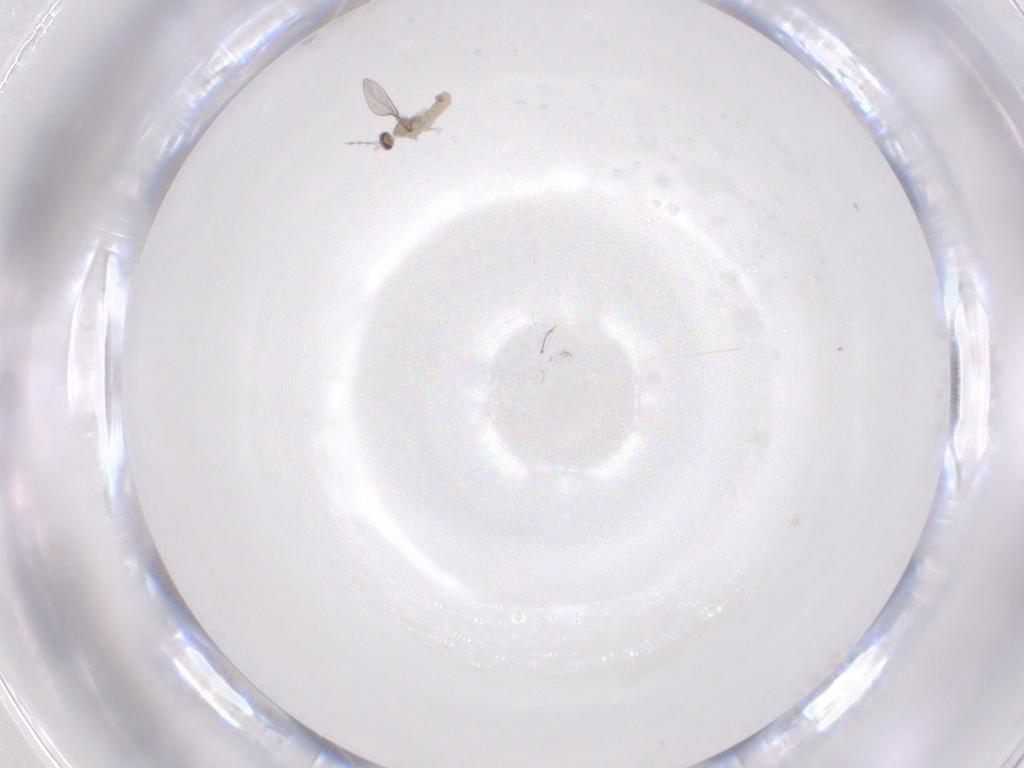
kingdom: Animalia
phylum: Arthropoda
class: Insecta
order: Diptera
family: Cecidomyiidae
